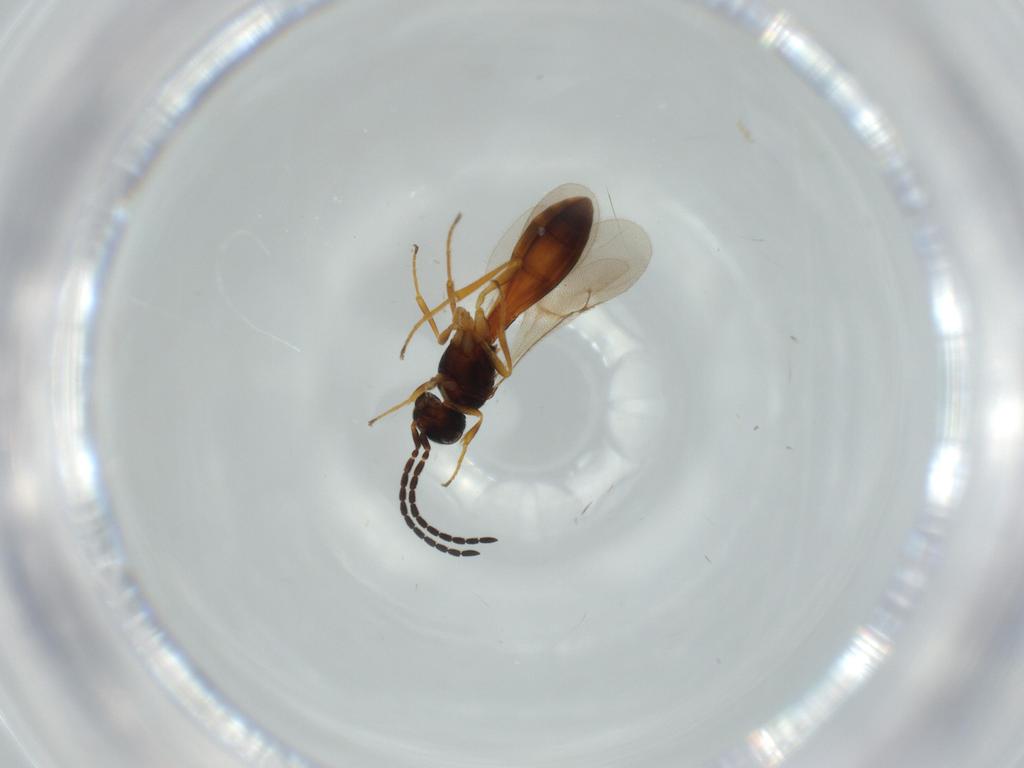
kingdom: Animalia
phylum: Arthropoda
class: Insecta
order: Hymenoptera
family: Scelionidae
